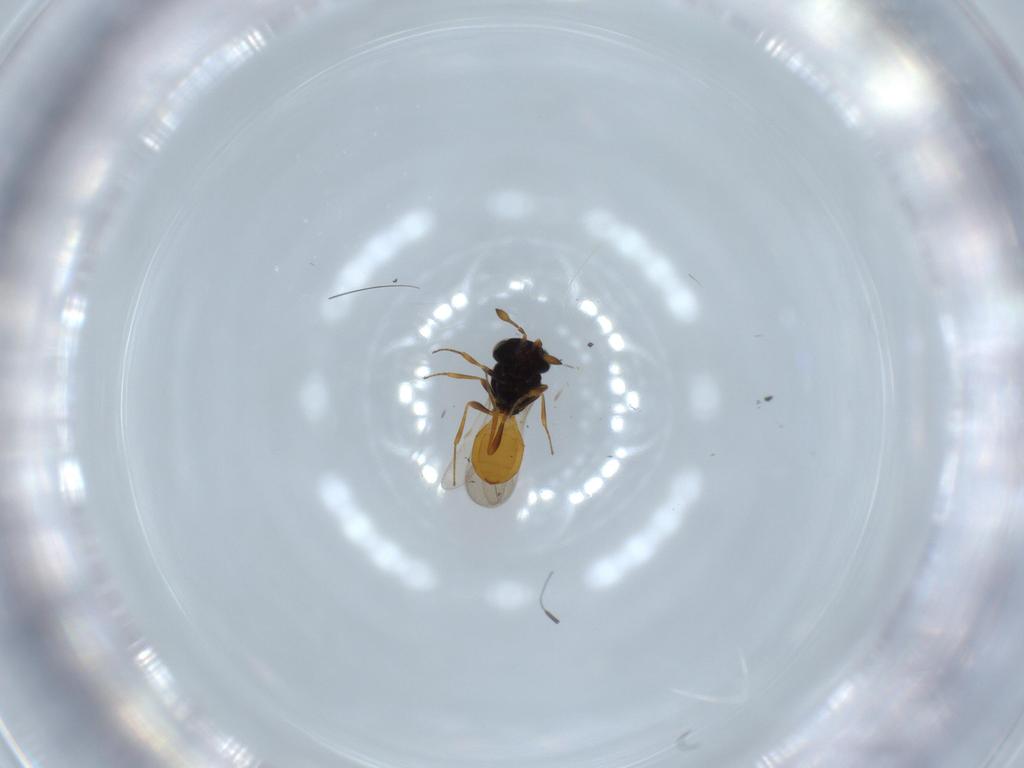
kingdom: Animalia
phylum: Arthropoda
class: Insecta
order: Hymenoptera
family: Scelionidae
